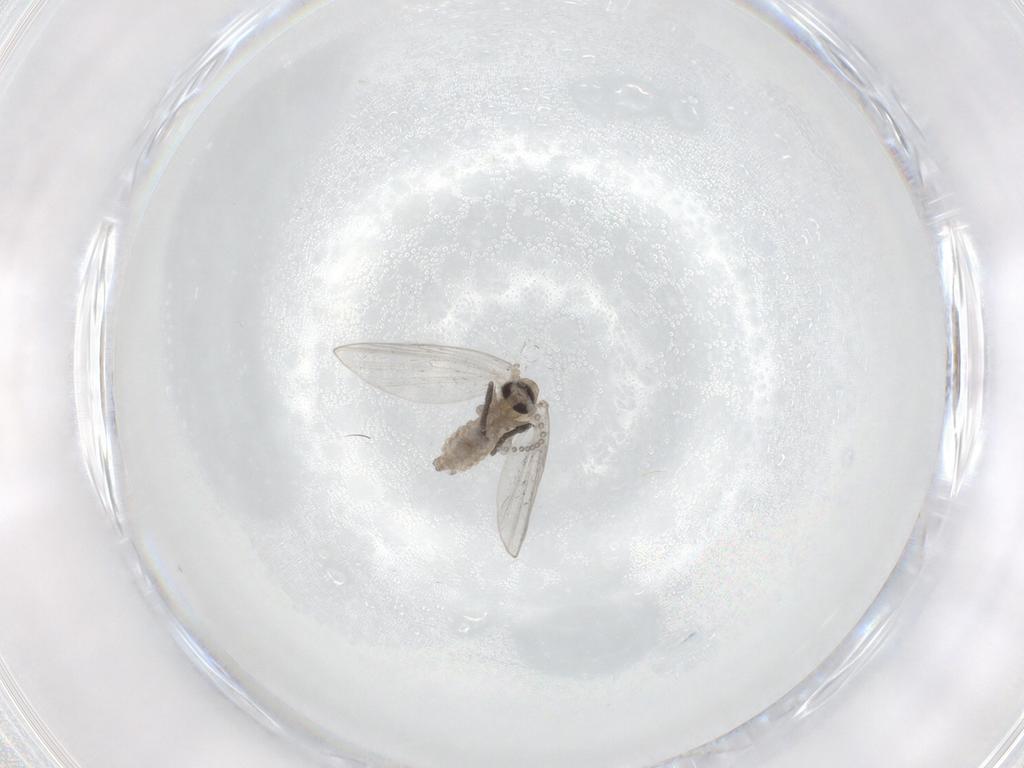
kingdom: Animalia
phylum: Arthropoda
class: Insecta
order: Diptera
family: Psychodidae
